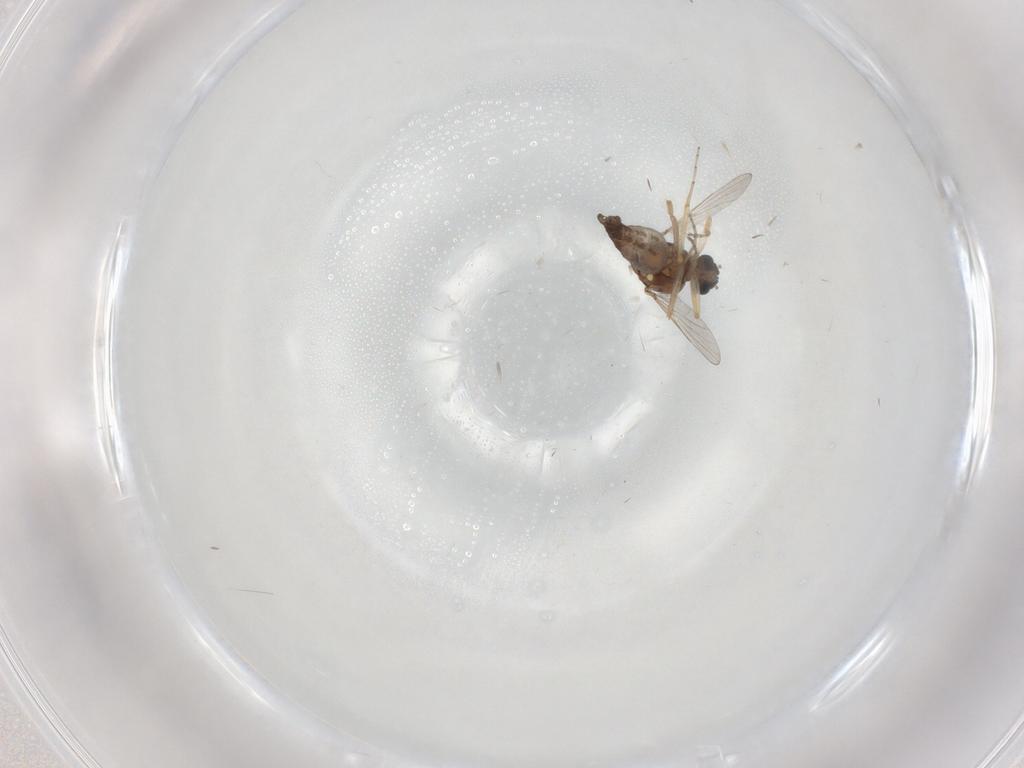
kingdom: Animalia
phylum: Arthropoda
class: Insecta
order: Diptera
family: Ceratopogonidae
